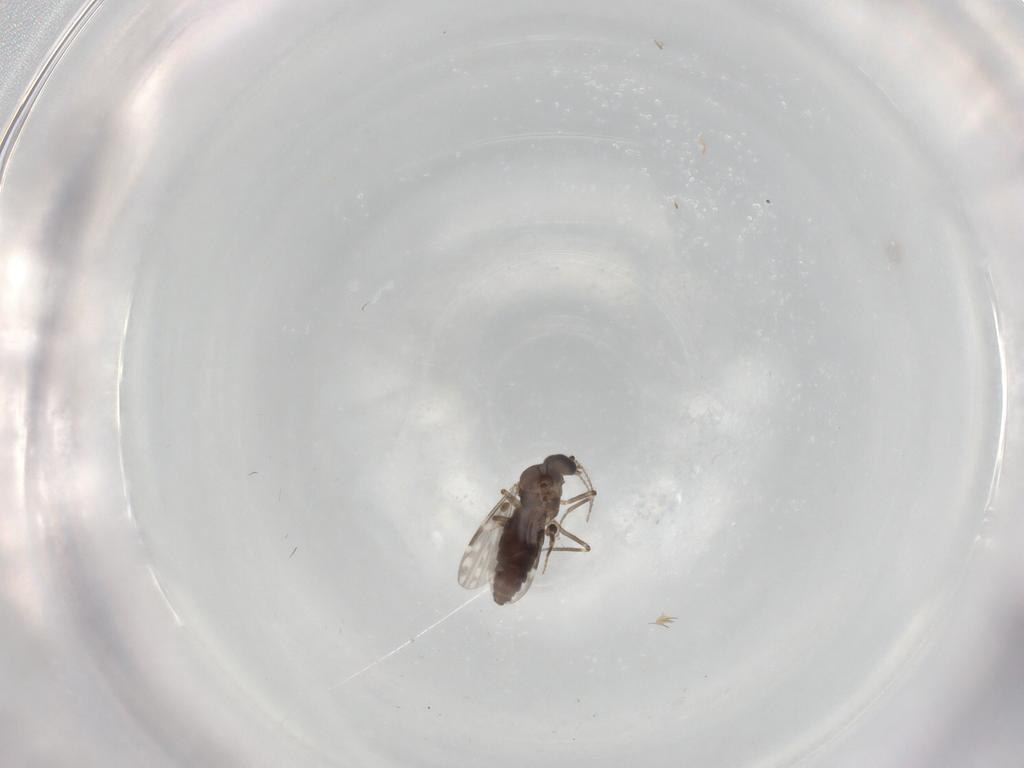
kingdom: Animalia
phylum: Arthropoda
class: Insecta
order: Diptera
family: Ceratopogonidae
